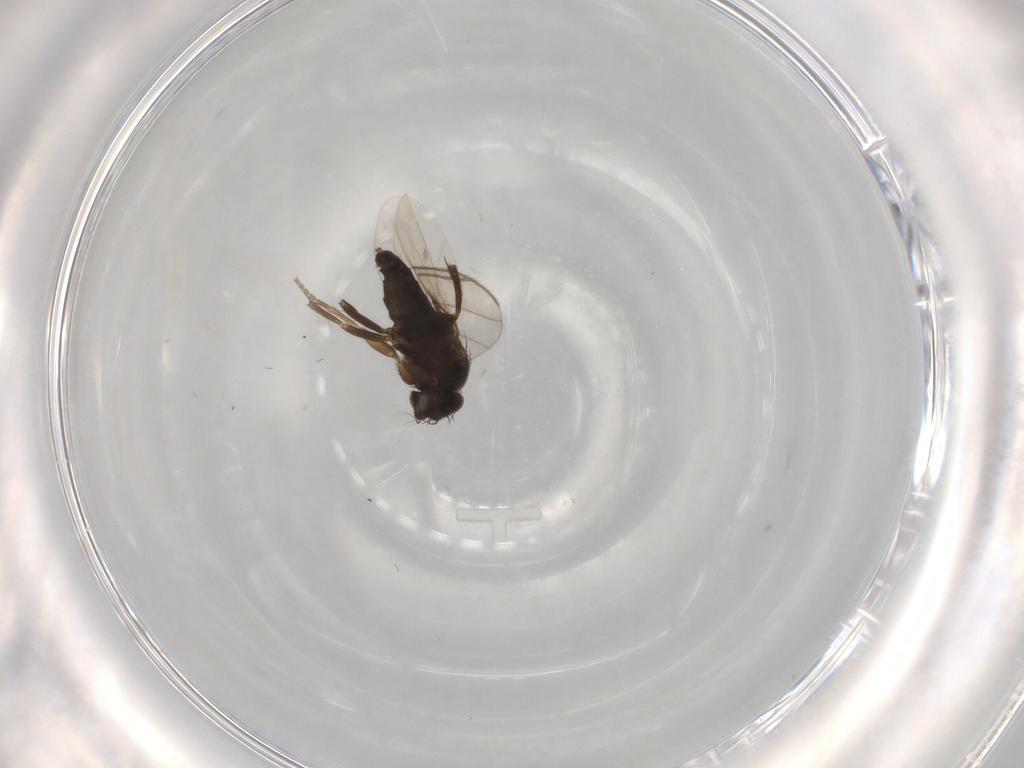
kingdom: Animalia
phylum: Arthropoda
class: Insecta
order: Diptera
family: Phoridae
